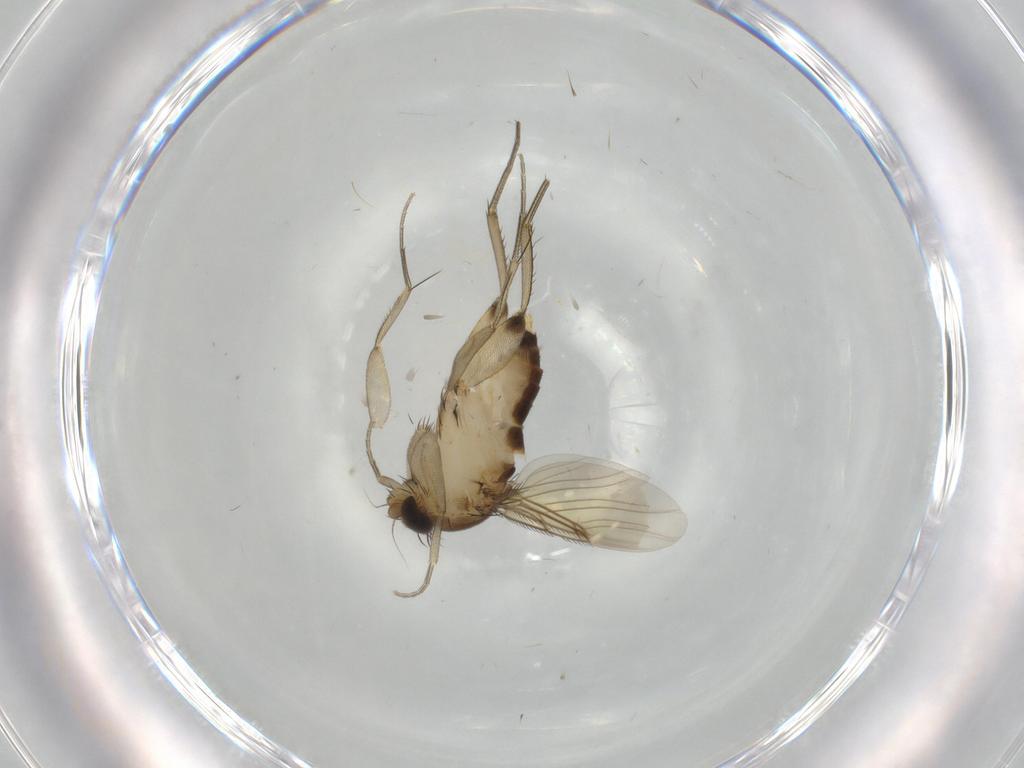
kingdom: Animalia
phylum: Arthropoda
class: Insecta
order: Diptera
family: Phoridae
